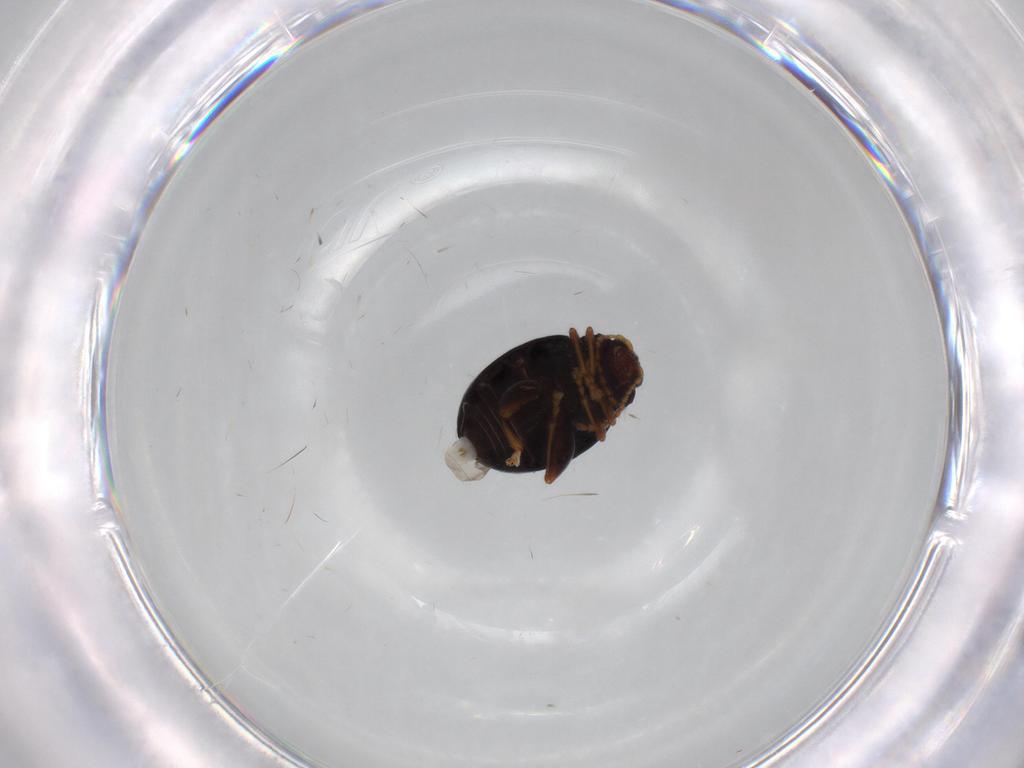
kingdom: Animalia
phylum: Arthropoda
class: Insecta
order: Coleoptera
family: Chrysomelidae
